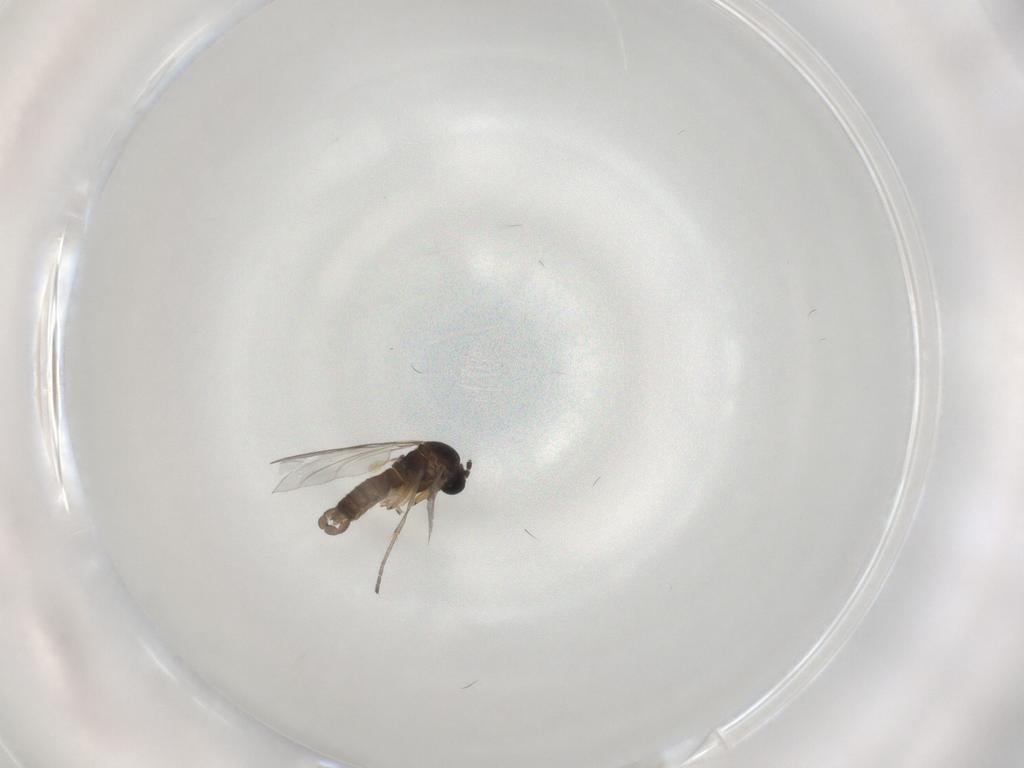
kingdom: Animalia
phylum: Arthropoda
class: Insecta
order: Diptera
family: Sciaridae
